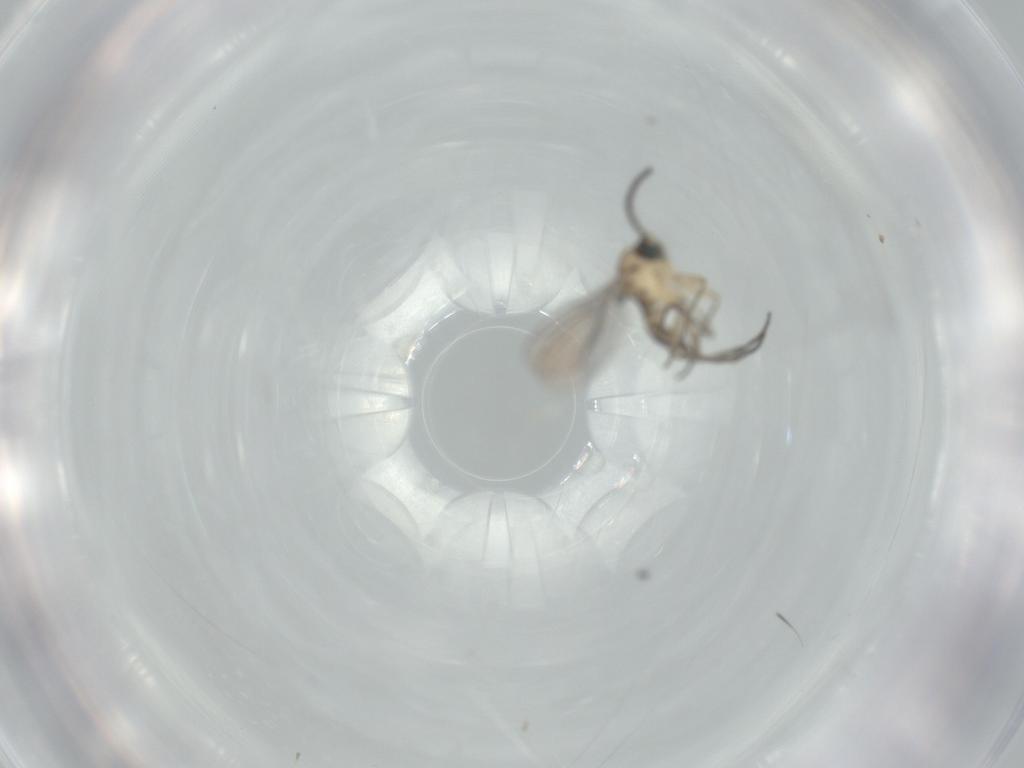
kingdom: Animalia
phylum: Arthropoda
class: Insecta
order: Diptera
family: Sciaridae
